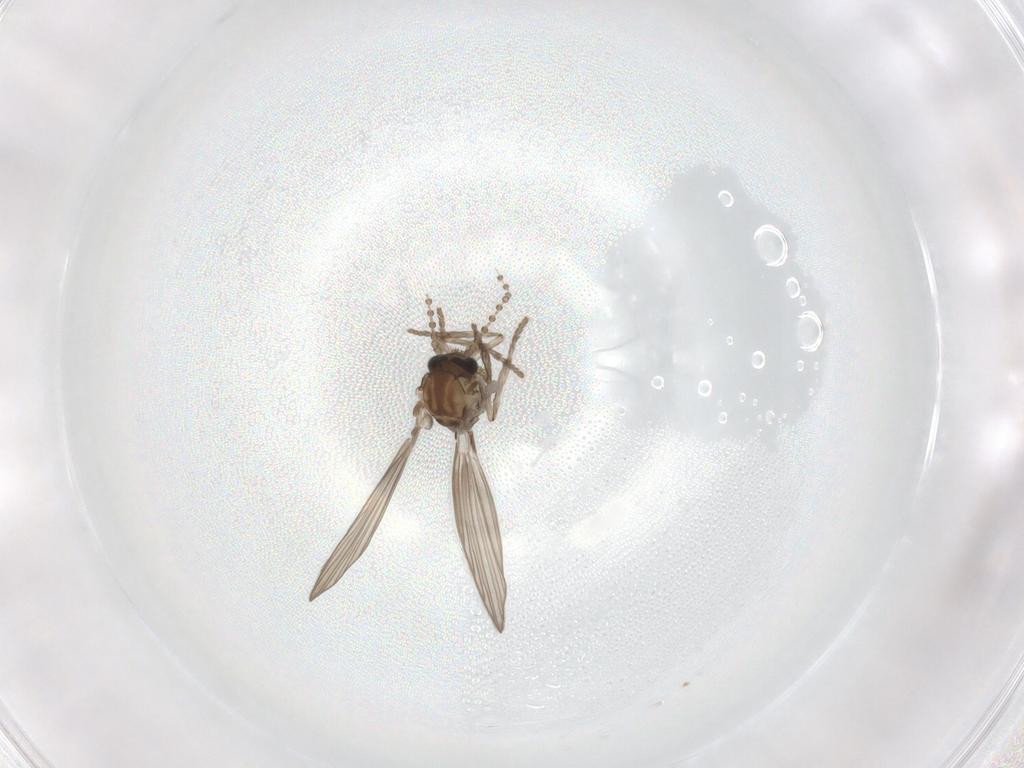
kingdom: Animalia
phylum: Arthropoda
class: Insecta
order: Diptera
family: Psychodidae
